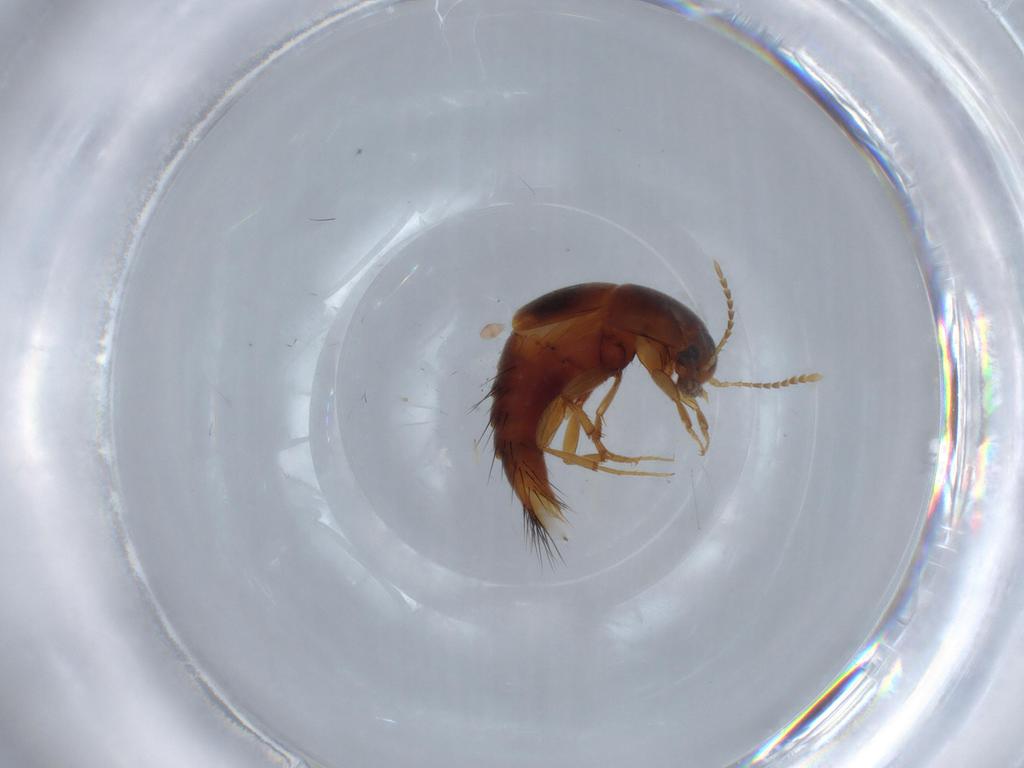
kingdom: Animalia
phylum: Arthropoda
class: Insecta
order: Coleoptera
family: Staphylinidae
